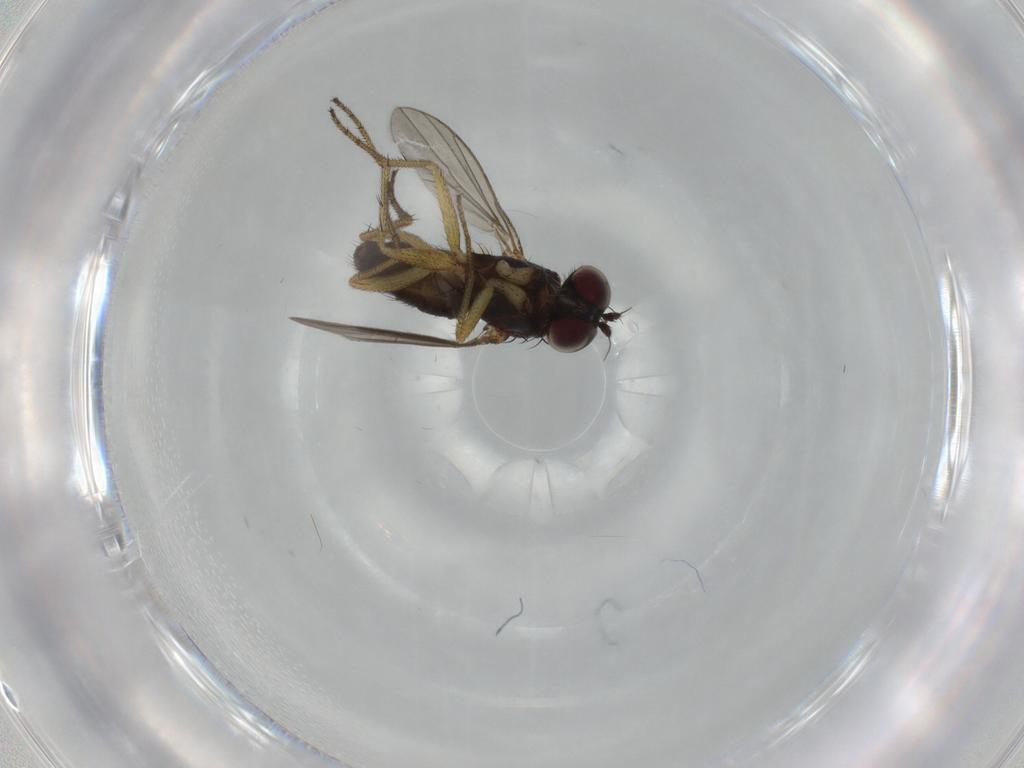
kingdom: Animalia
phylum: Arthropoda
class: Insecta
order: Diptera
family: Dolichopodidae
